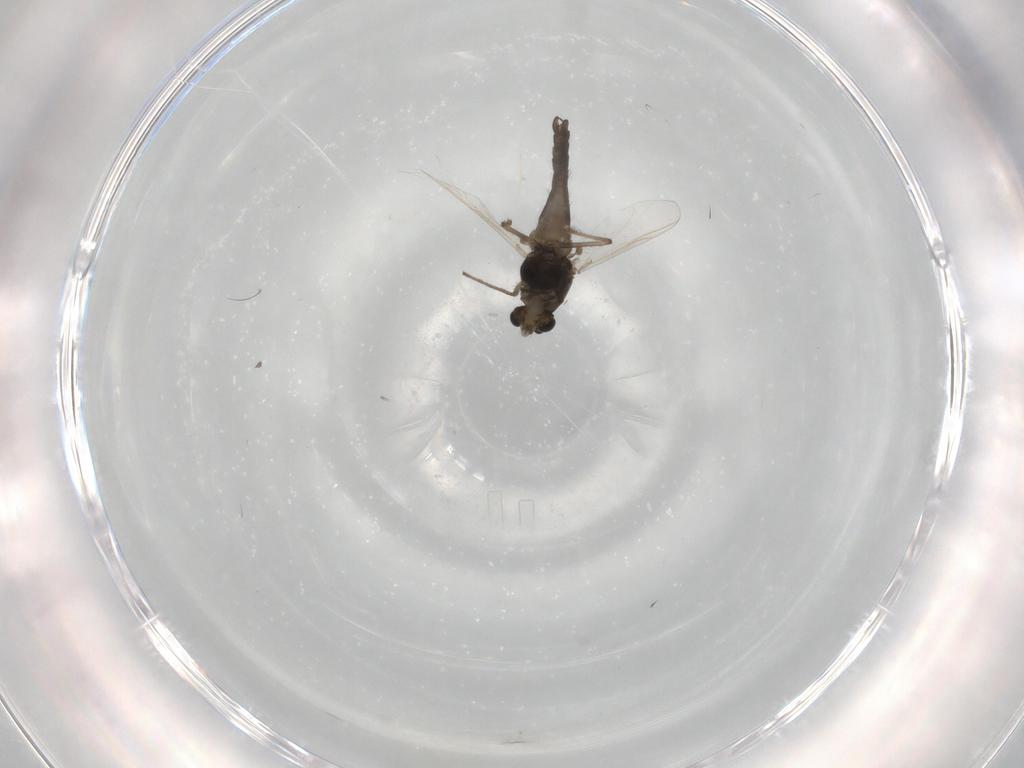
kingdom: Animalia
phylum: Arthropoda
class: Insecta
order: Diptera
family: Chironomidae
